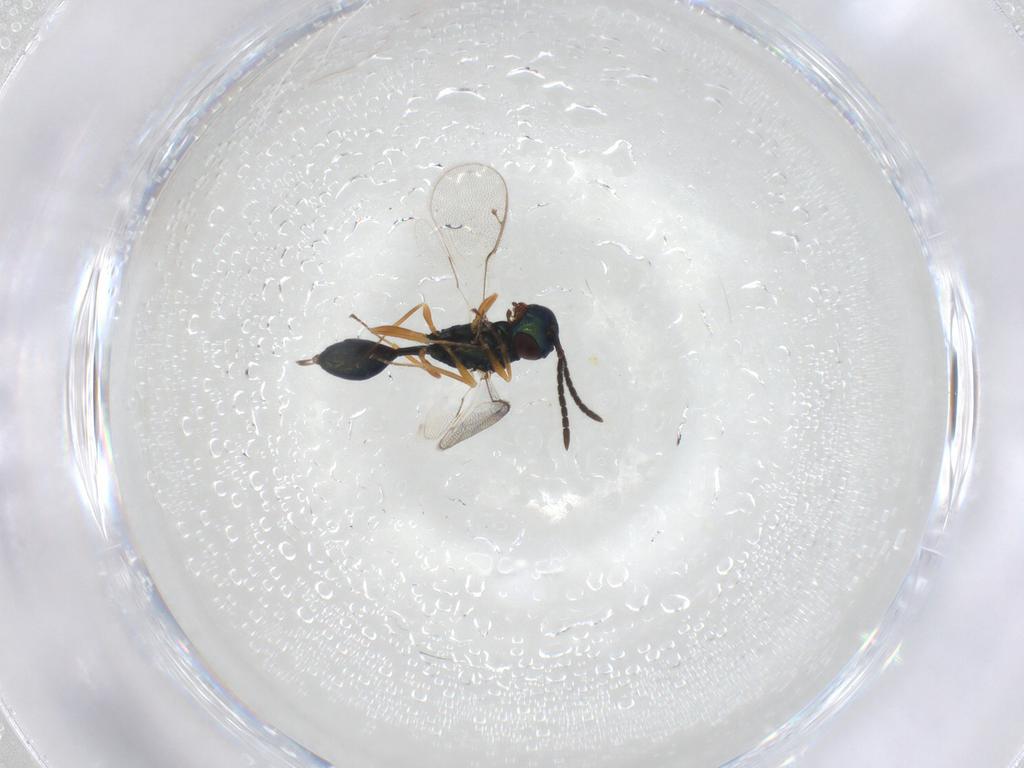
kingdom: Animalia
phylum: Arthropoda
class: Insecta
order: Hymenoptera
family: Pteromalidae
